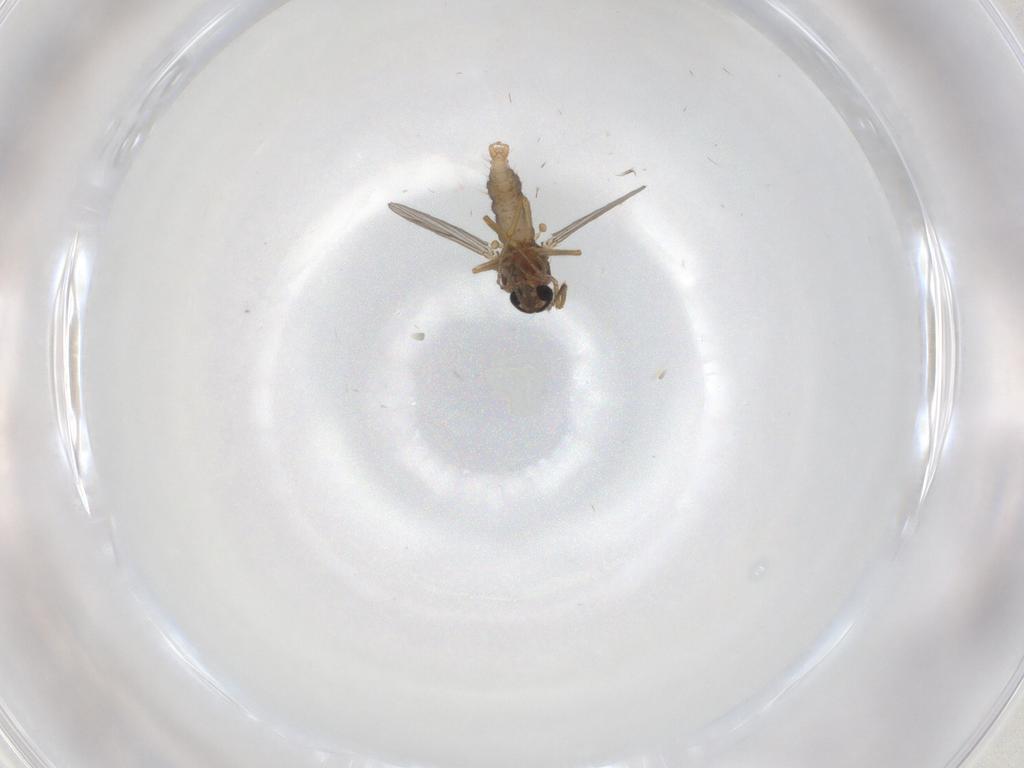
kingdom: Animalia
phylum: Arthropoda
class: Insecta
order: Diptera
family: Ceratopogonidae
